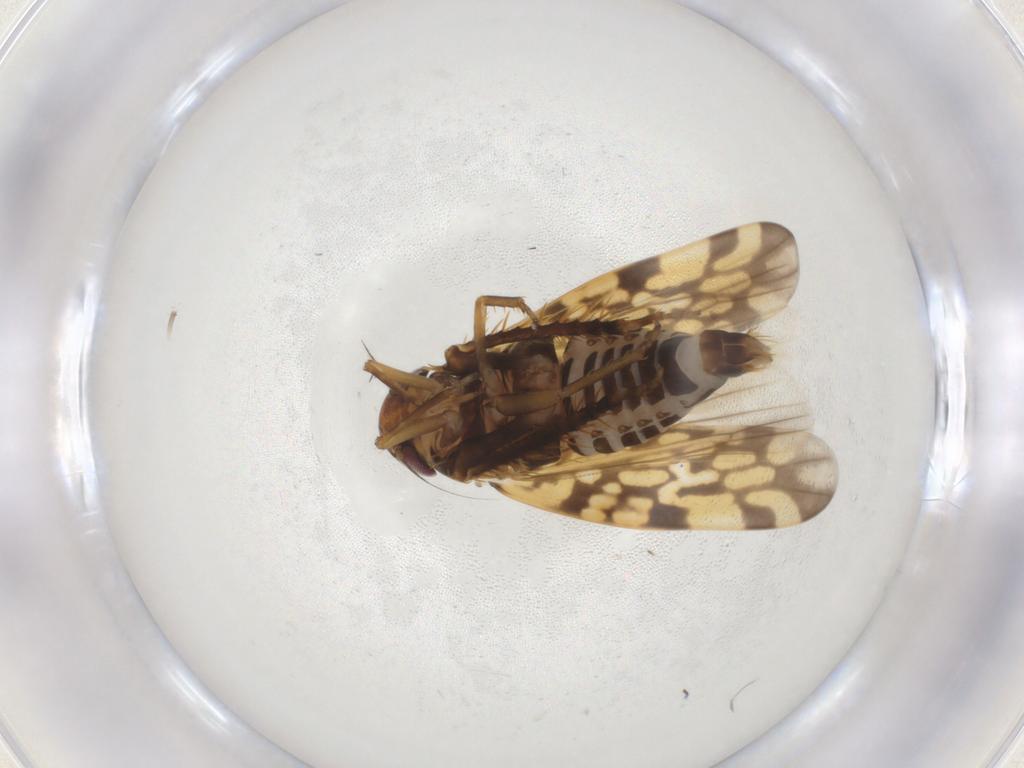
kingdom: Animalia
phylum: Arthropoda
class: Insecta
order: Hemiptera
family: Cicadellidae
